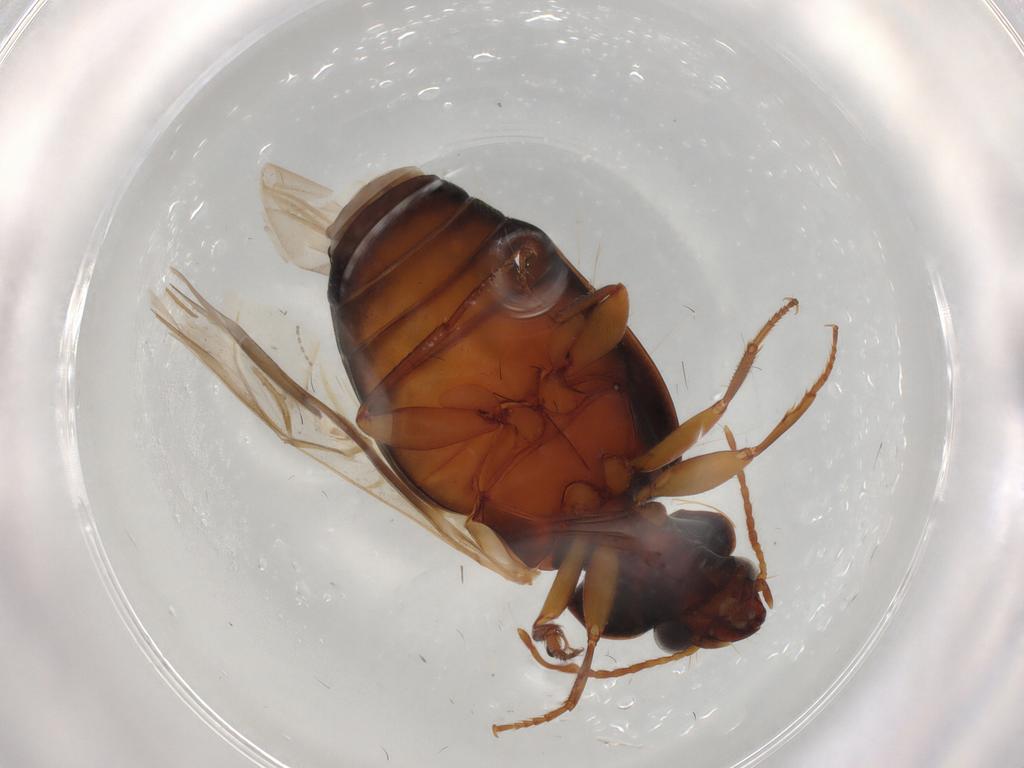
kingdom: Animalia
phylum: Arthropoda
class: Insecta
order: Coleoptera
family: Carabidae
